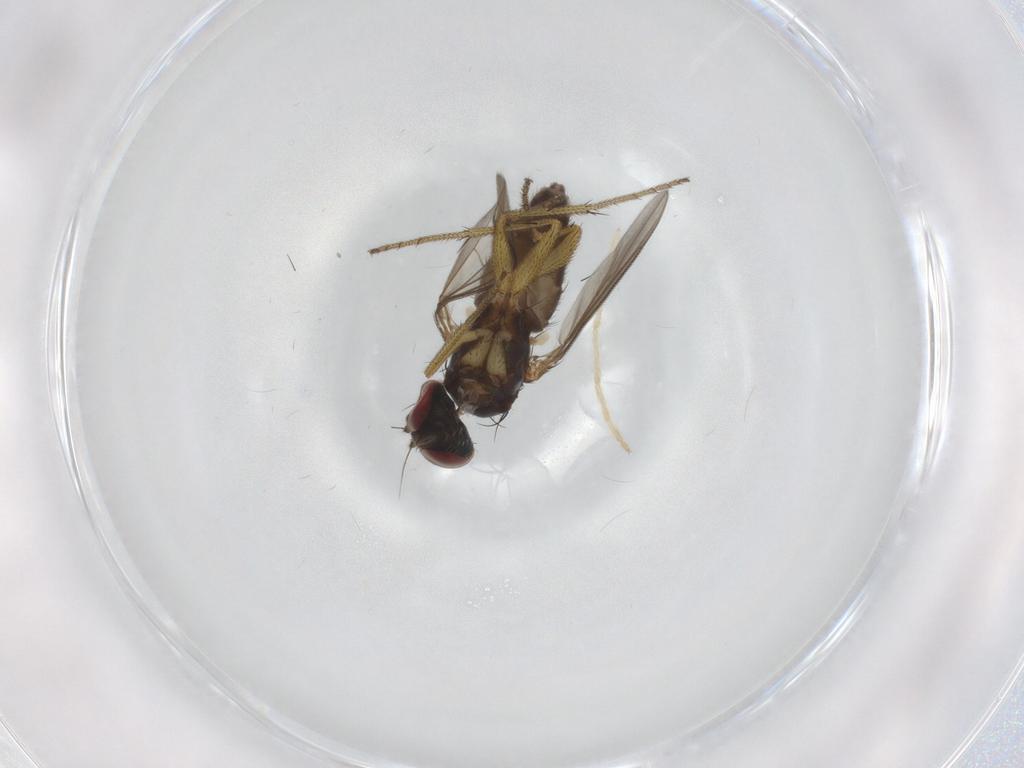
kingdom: Animalia
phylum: Arthropoda
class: Insecta
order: Diptera
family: Chironomidae
